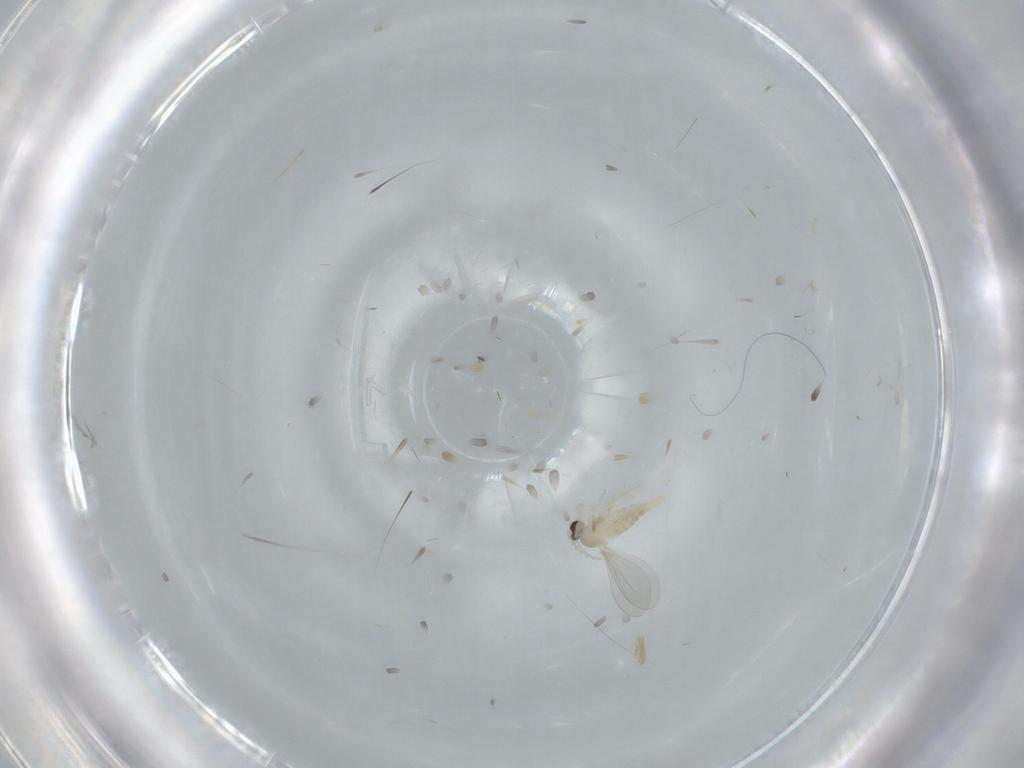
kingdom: Animalia
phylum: Arthropoda
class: Insecta
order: Diptera
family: Cecidomyiidae
